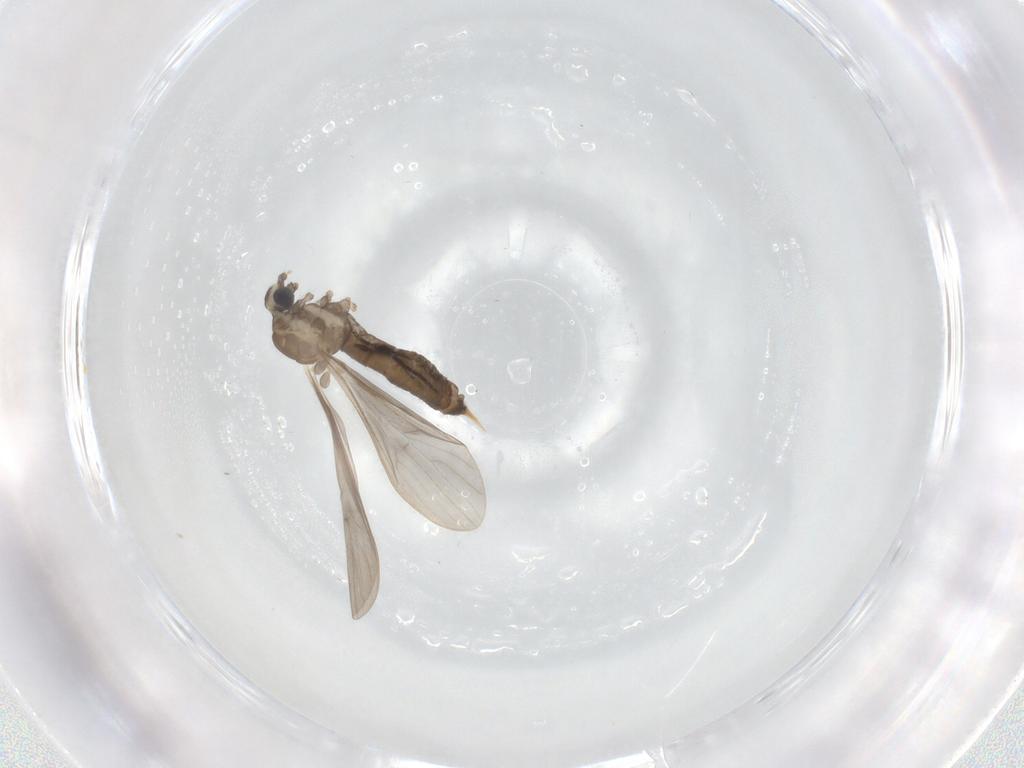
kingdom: Animalia
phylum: Arthropoda
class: Insecta
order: Diptera
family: Limoniidae
